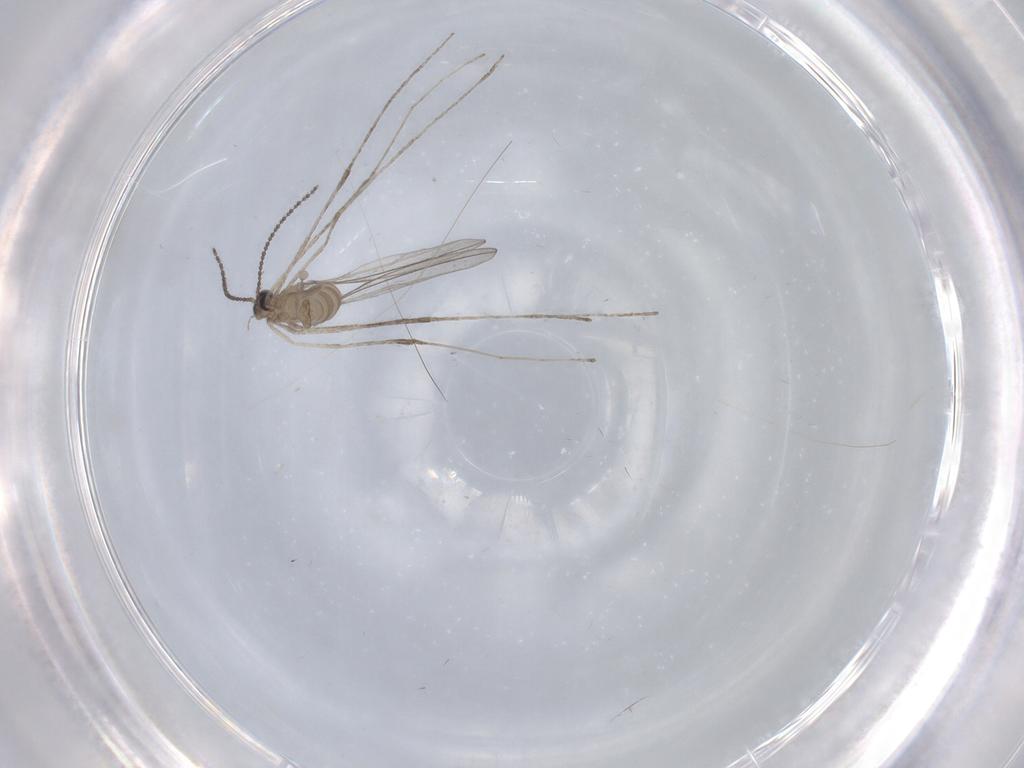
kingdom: Animalia
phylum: Arthropoda
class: Insecta
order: Diptera
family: Cecidomyiidae
